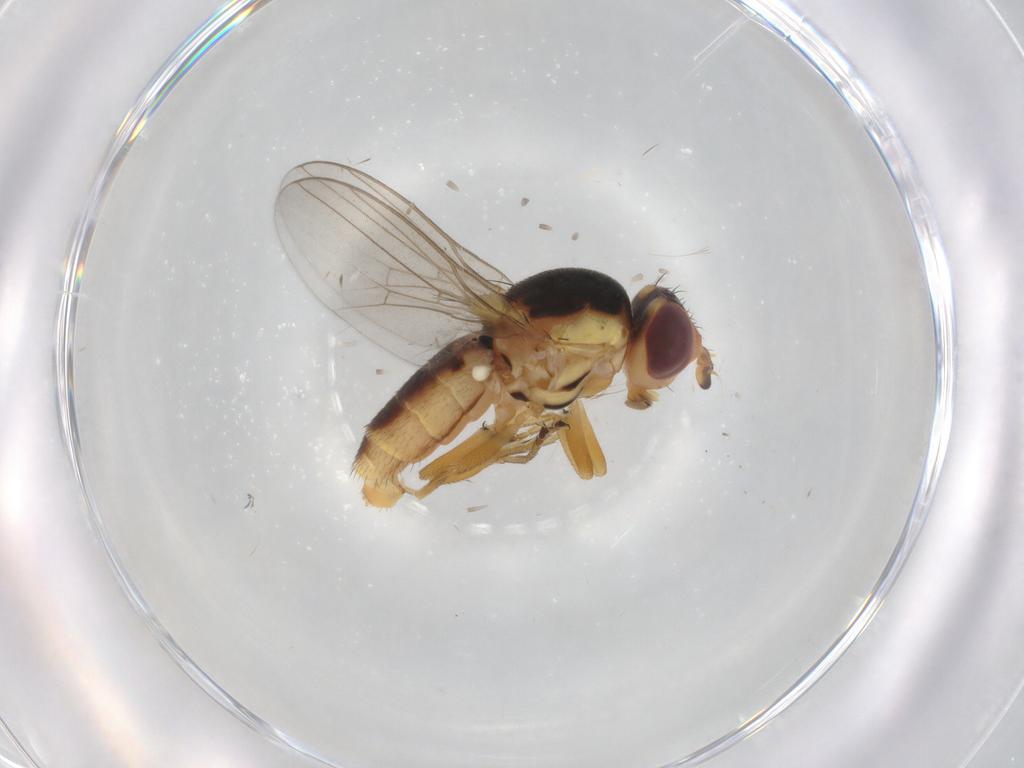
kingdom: Animalia
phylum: Arthropoda
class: Insecta
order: Diptera
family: Chloropidae
